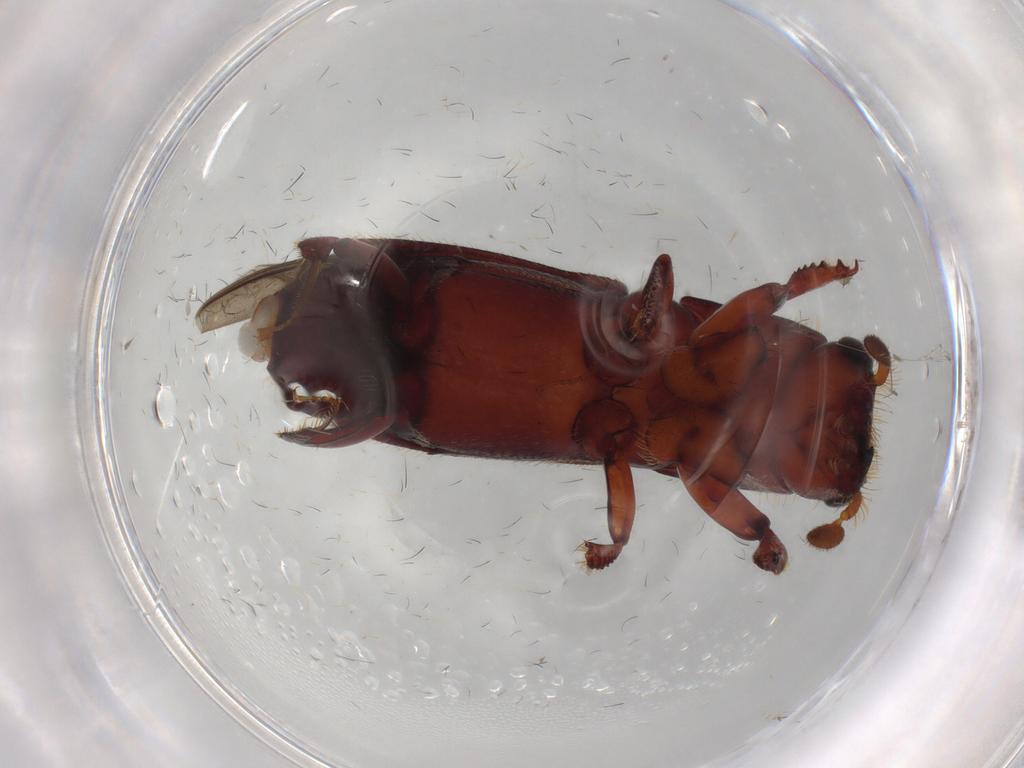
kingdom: Animalia
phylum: Arthropoda
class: Insecta
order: Coleoptera
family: Curculionidae
